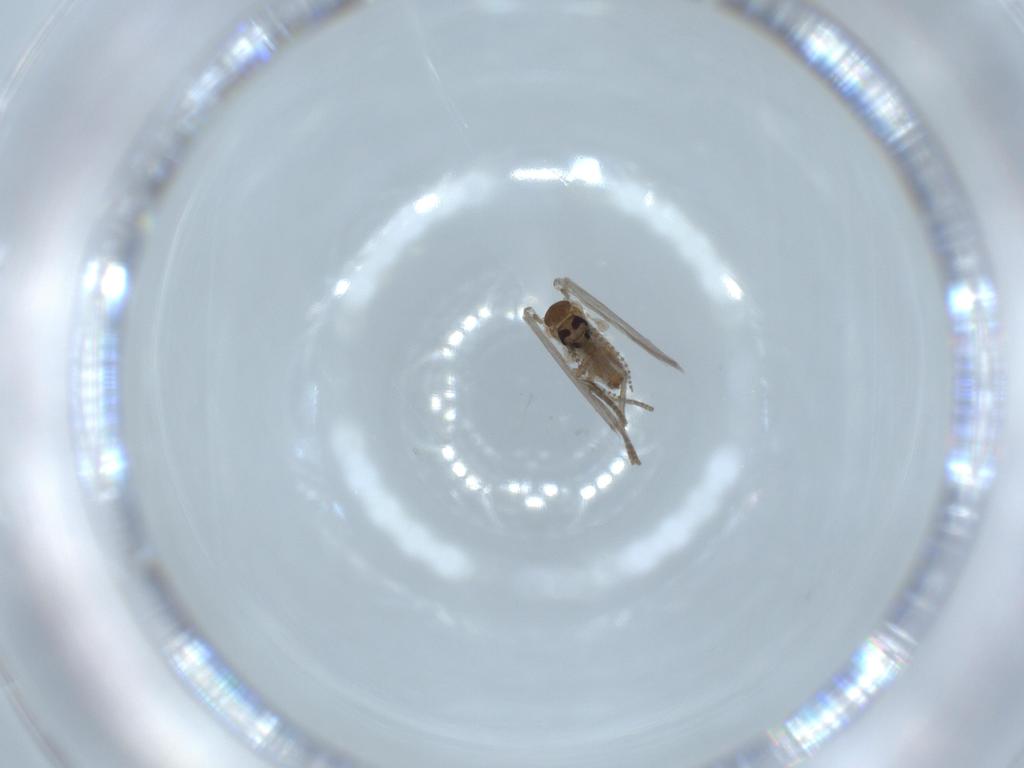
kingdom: Animalia
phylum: Arthropoda
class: Insecta
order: Diptera
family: Psychodidae
